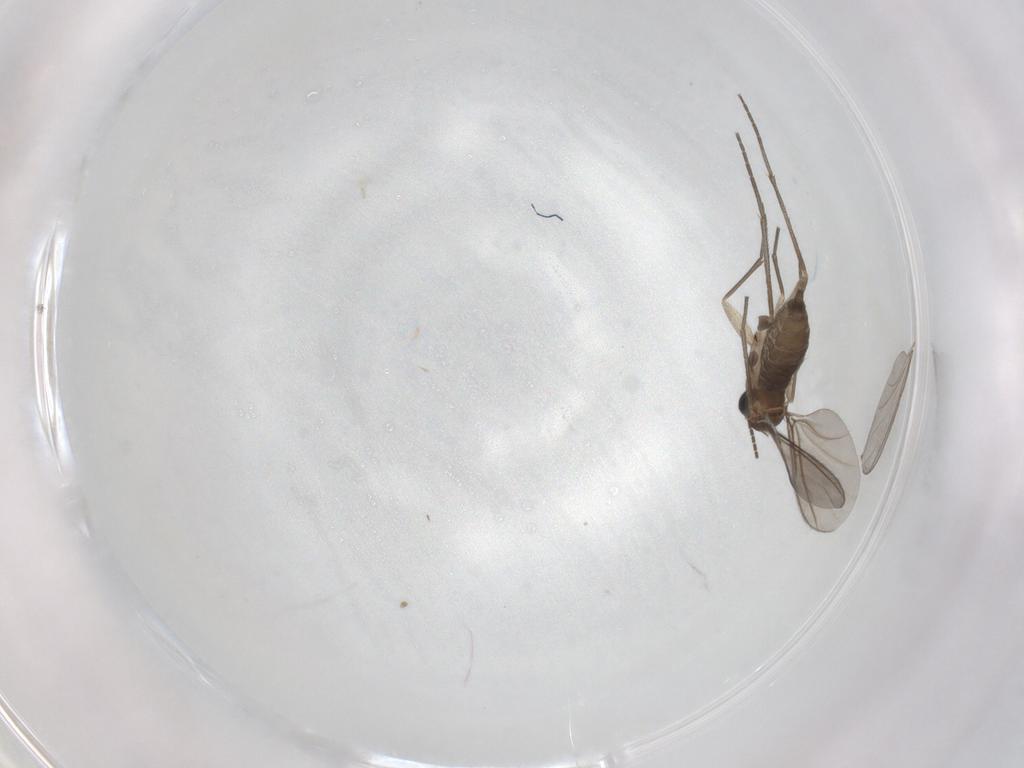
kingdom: Animalia
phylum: Arthropoda
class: Insecta
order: Diptera
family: Sciaridae
